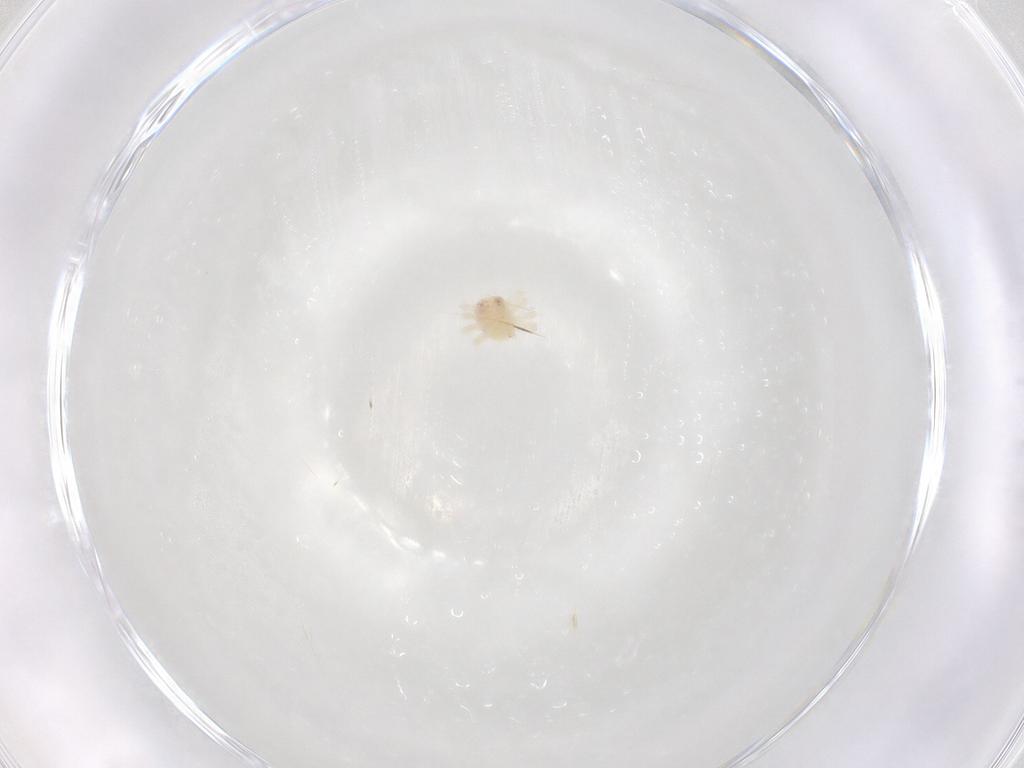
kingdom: Animalia
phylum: Arthropoda
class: Arachnida
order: Trombidiformes
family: Anystidae
